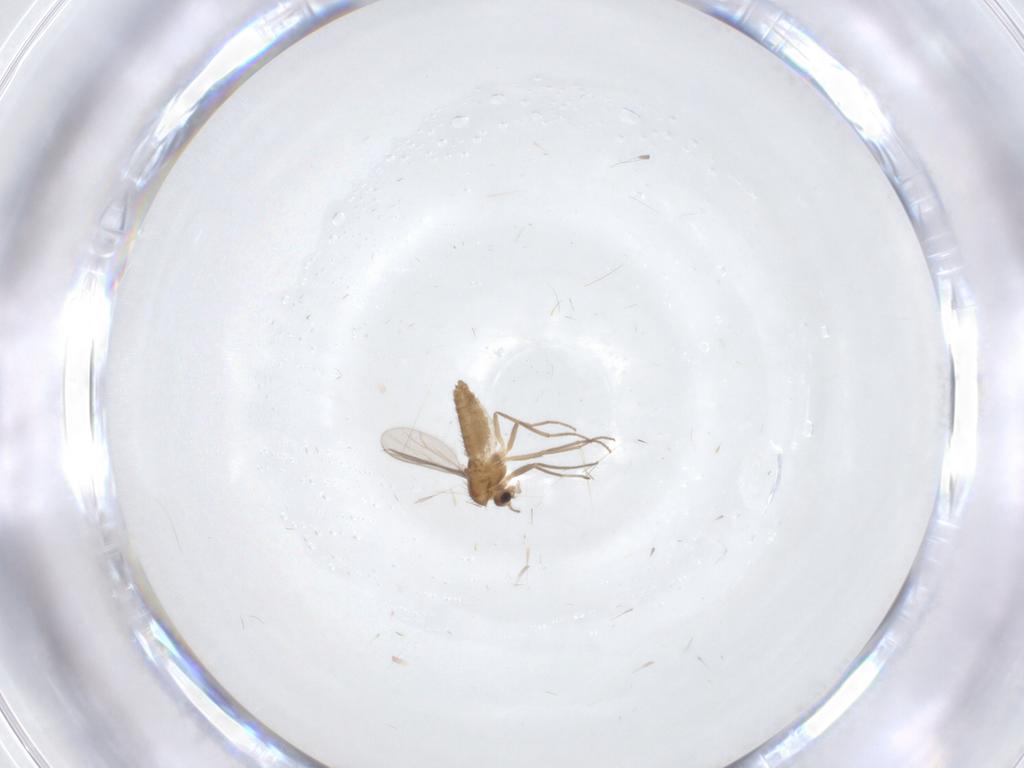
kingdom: Animalia
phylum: Arthropoda
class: Insecta
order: Diptera
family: Chironomidae
